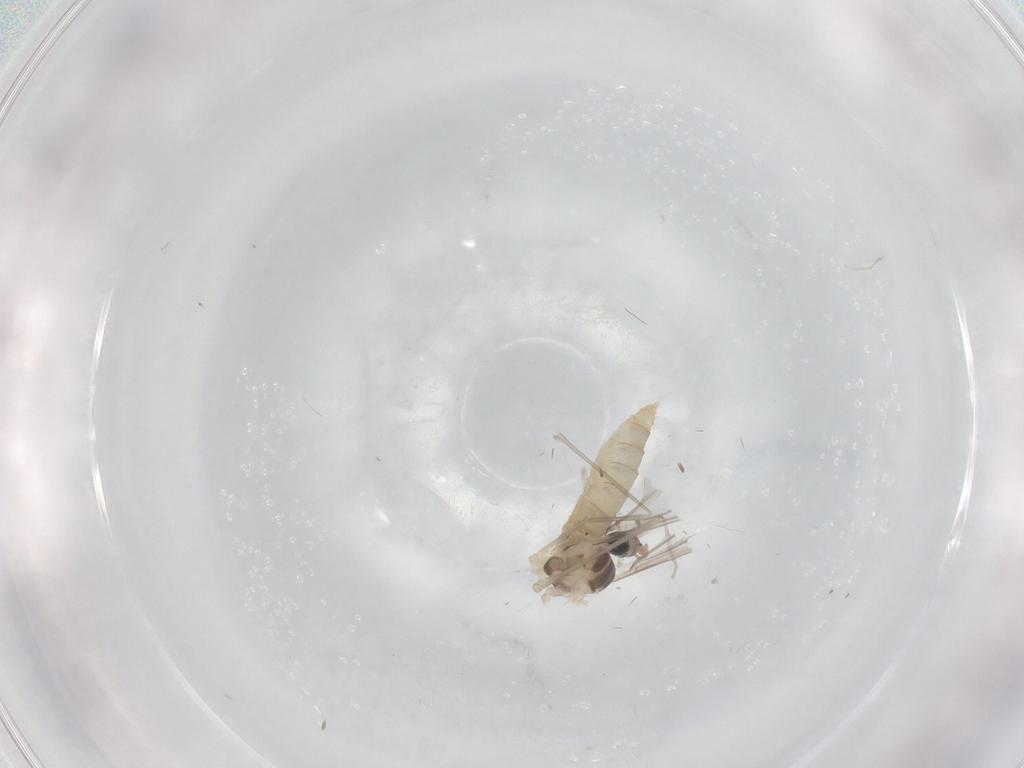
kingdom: Animalia
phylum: Arthropoda
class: Insecta
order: Diptera
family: Cecidomyiidae
